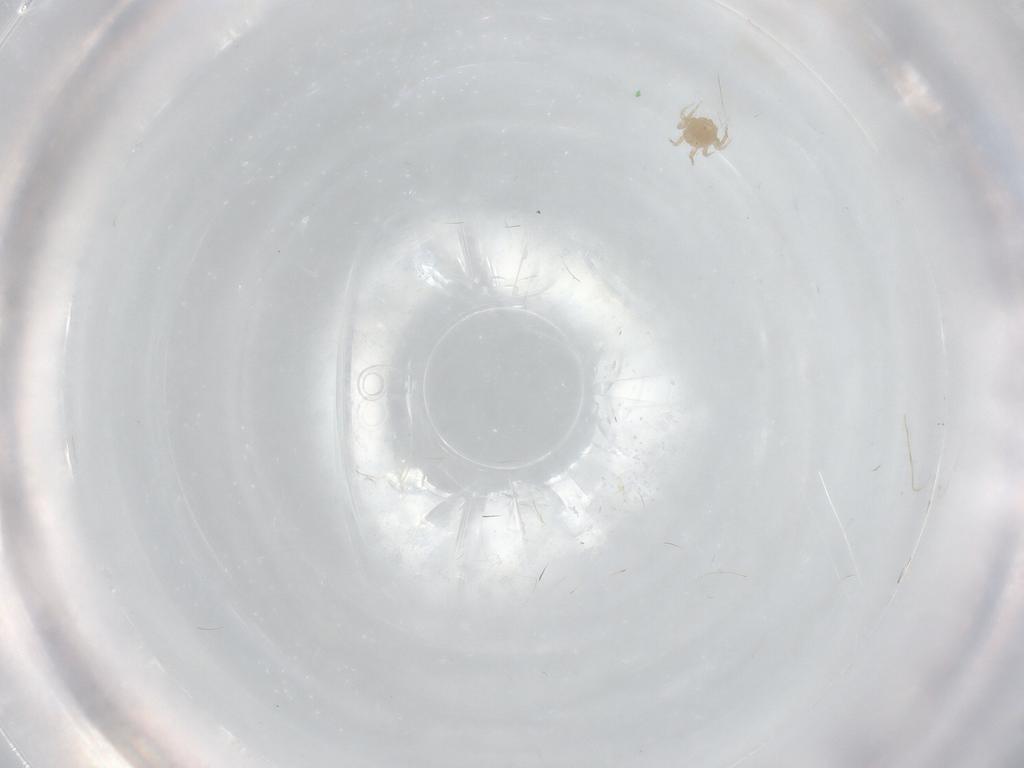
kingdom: Animalia
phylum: Arthropoda
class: Arachnida
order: Mesostigmata
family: Blattisociidae
